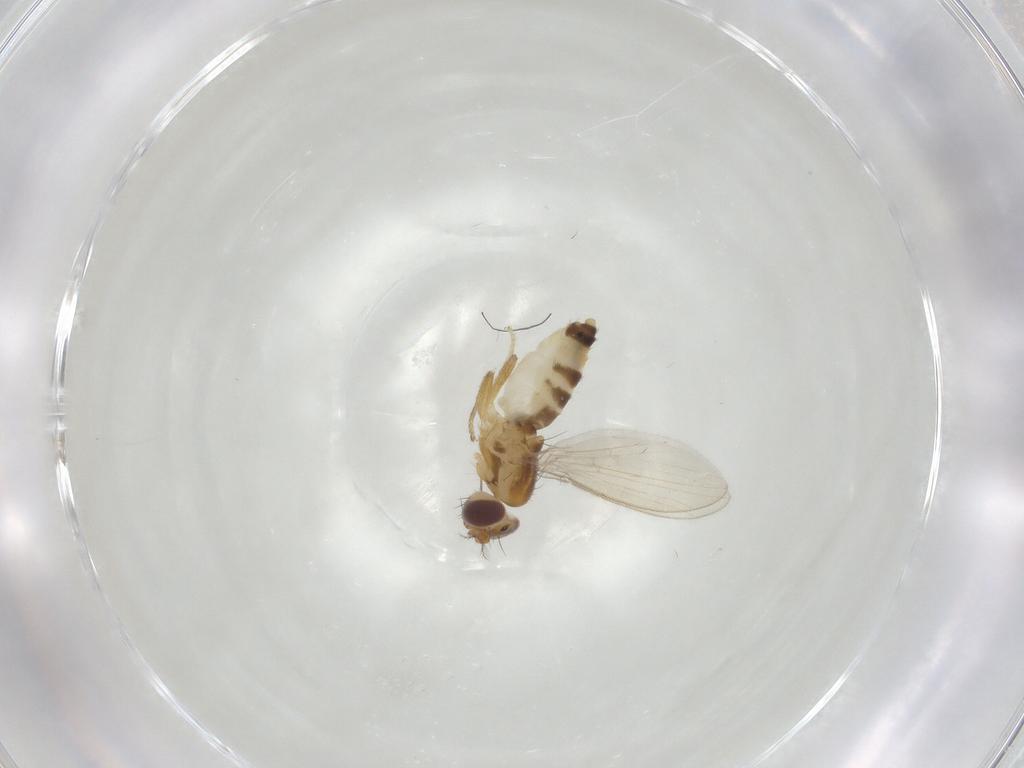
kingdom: Animalia
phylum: Arthropoda
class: Insecta
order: Diptera
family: Periscelididae
